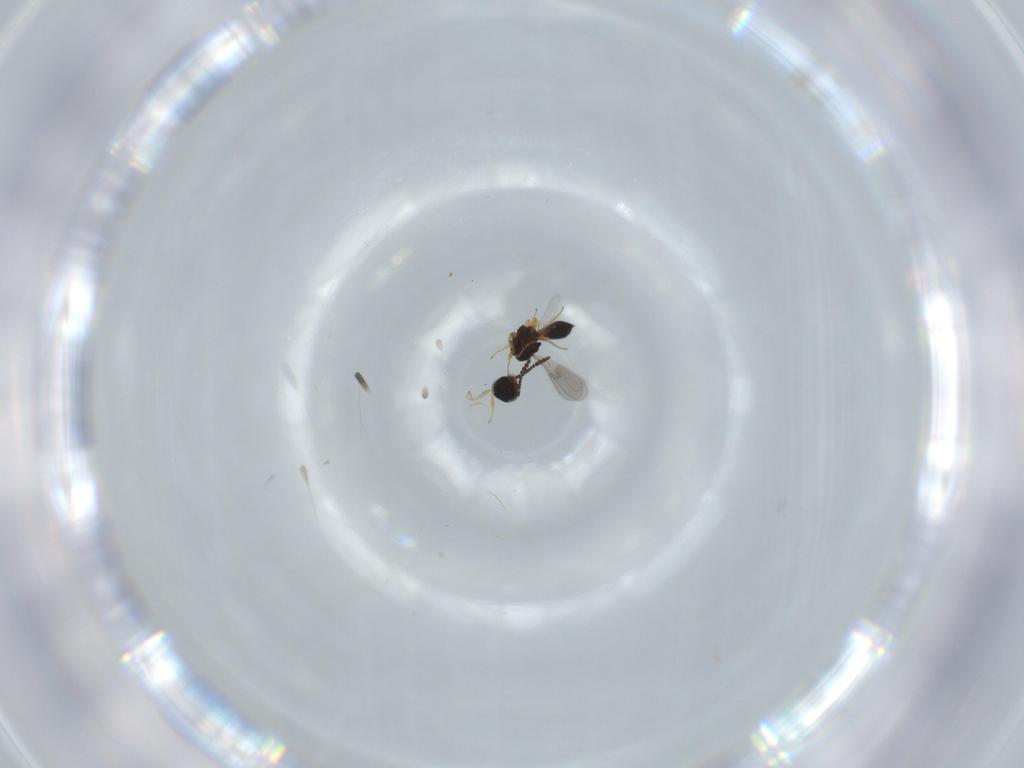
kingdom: Animalia
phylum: Arthropoda
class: Insecta
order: Hymenoptera
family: Scelionidae
